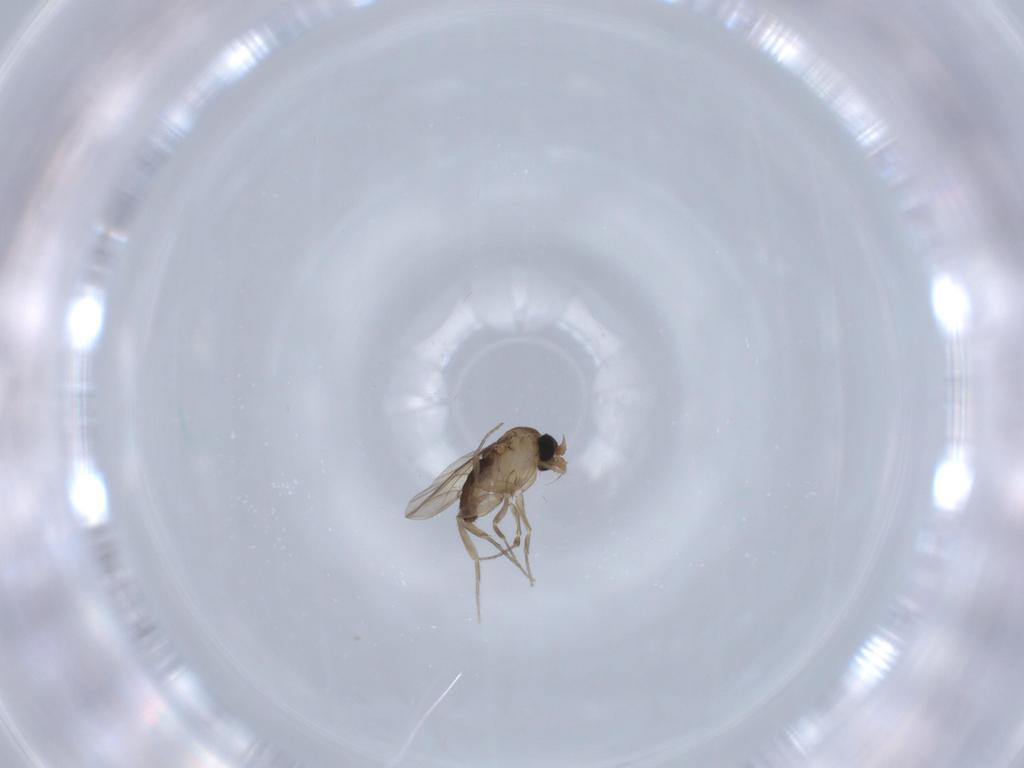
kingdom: Animalia
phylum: Arthropoda
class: Insecta
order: Diptera
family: Phoridae
